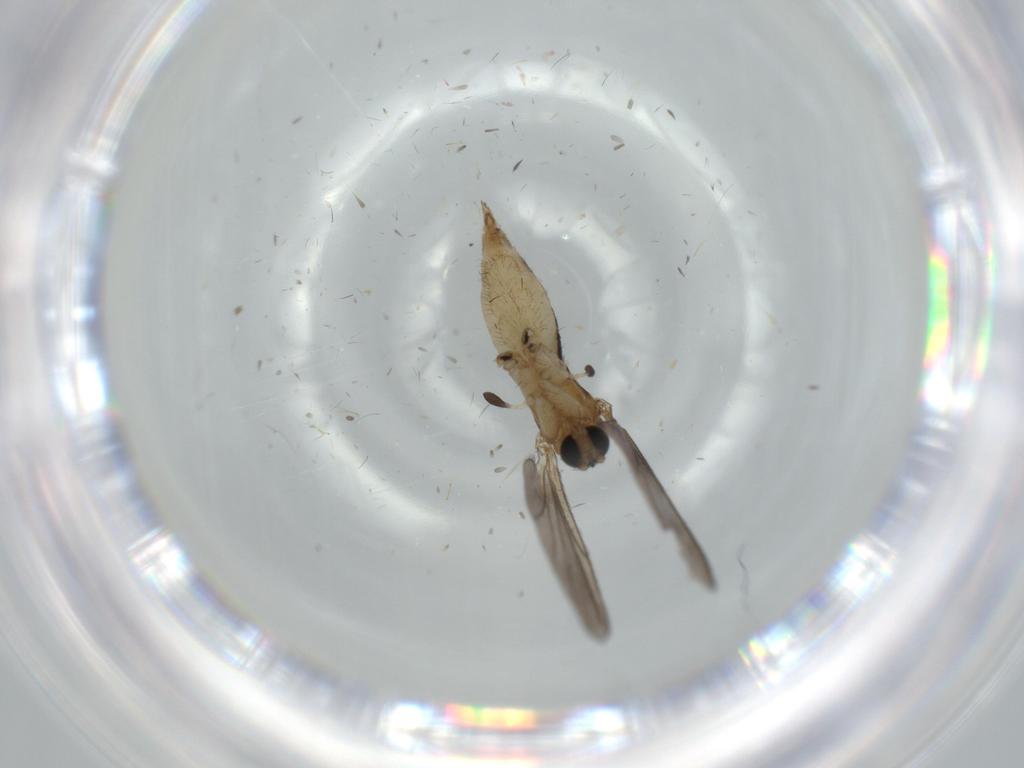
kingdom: Animalia
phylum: Arthropoda
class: Insecta
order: Diptera
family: Sciaridae
